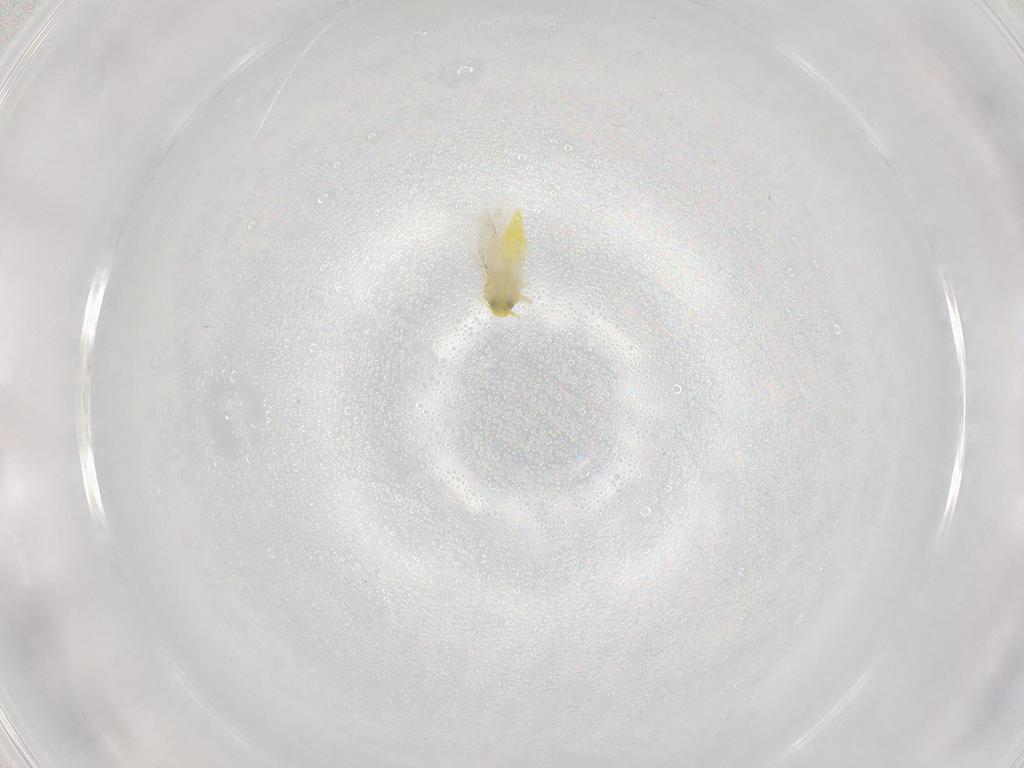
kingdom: Animalia
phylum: Arthropoda
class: Insecta
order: Hemiptera
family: Aleyrodidae
